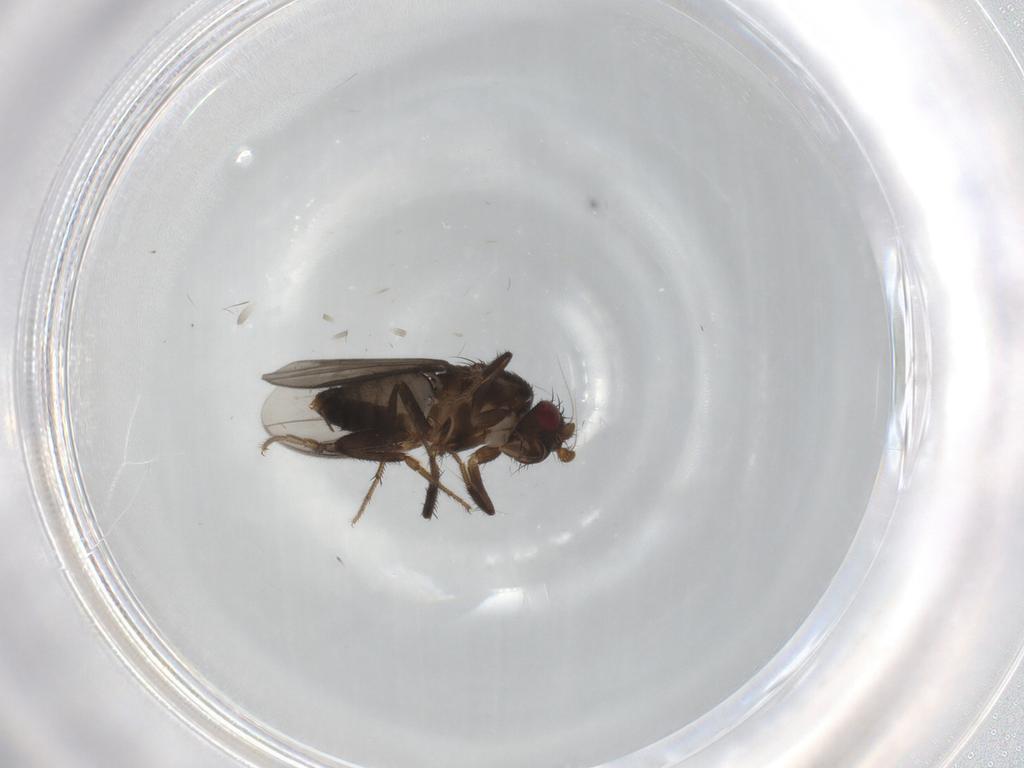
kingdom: Animalia
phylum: Arthropoda
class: Insecta
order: Diptera
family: Sphaeroceridae
